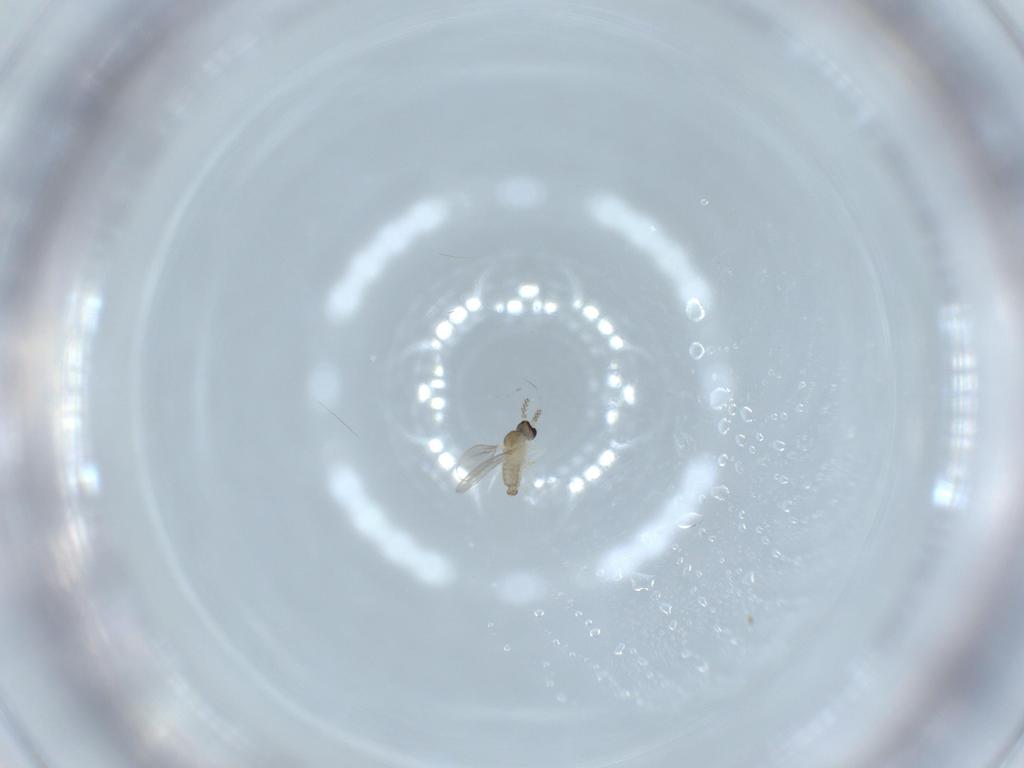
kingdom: Animalia
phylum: Arthropoda
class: Insecta
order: Diptera
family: Cecidomyiidae
